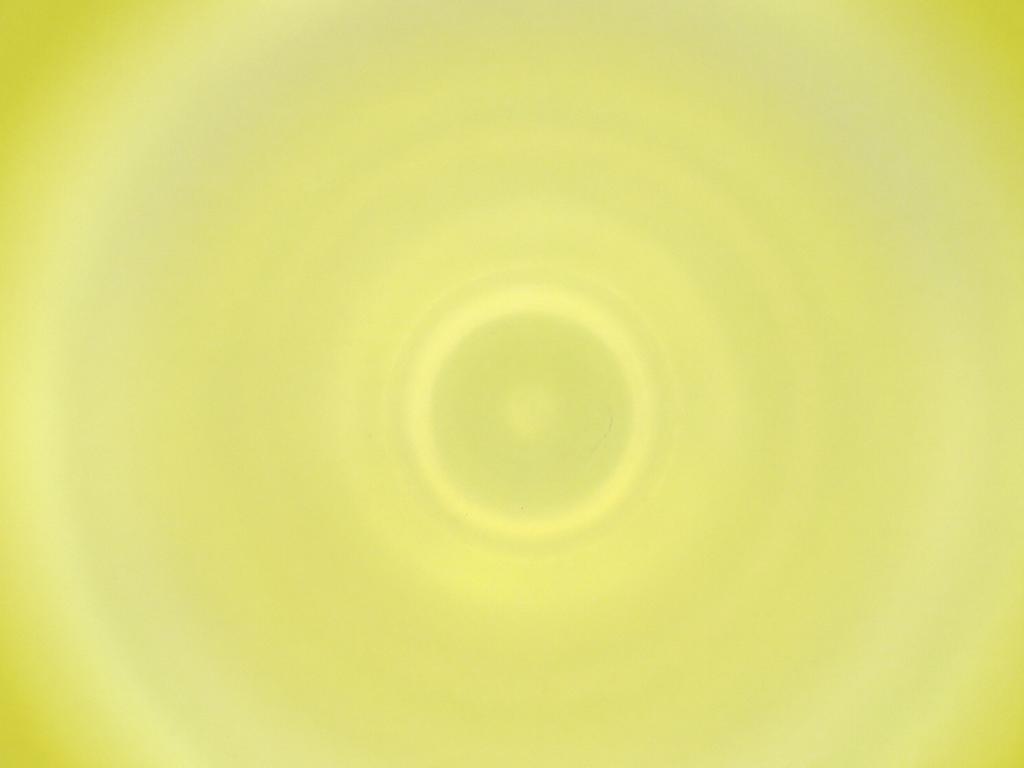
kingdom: Animalia
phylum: Arthropoda
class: Insecta
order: Diptera
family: Cecidomyiidae
